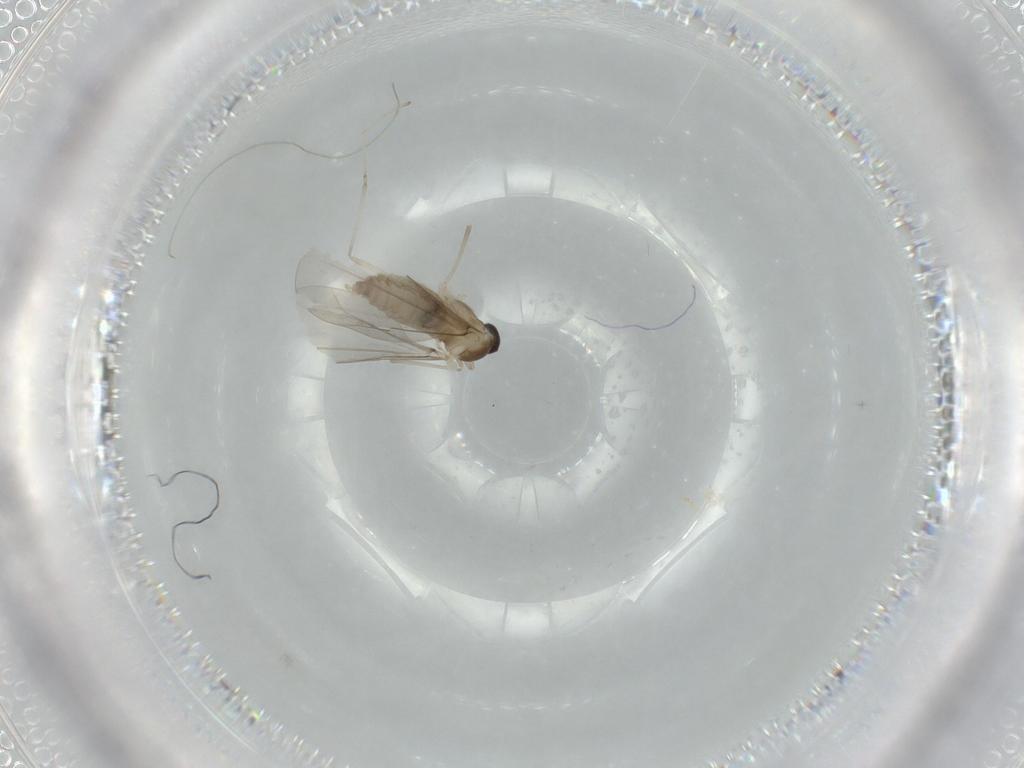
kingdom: Animalia
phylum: Arthropoda
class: Insecta
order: Diptera
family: Cecidomyiidae
